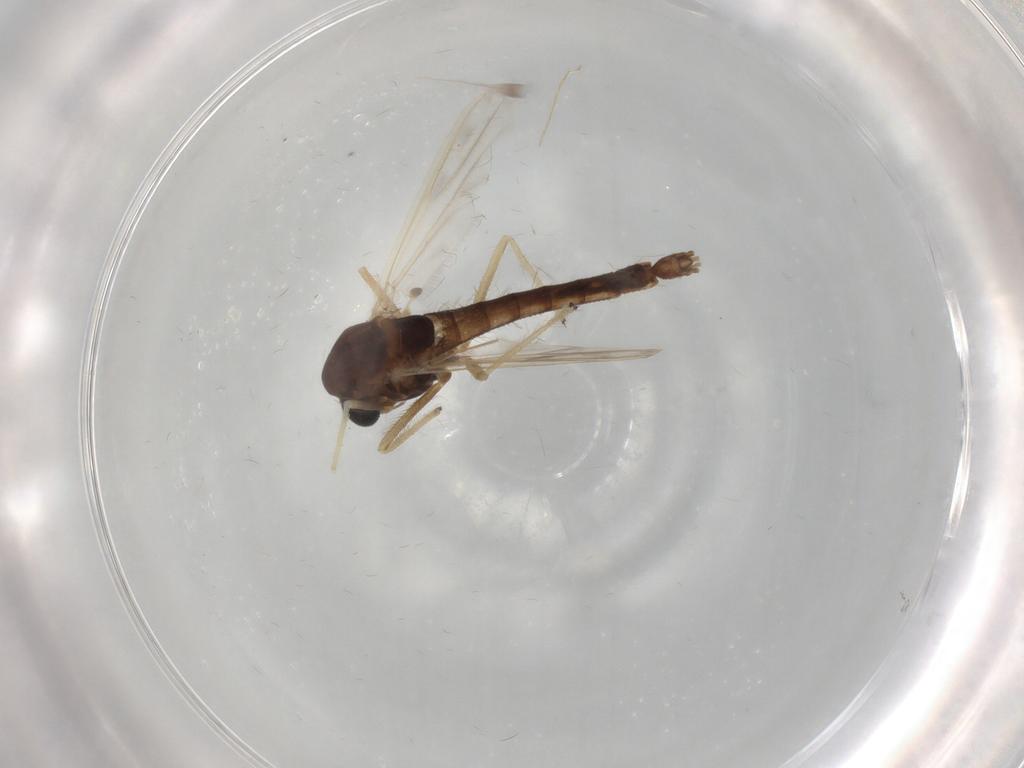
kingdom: Animalia
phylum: Arthropoda
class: Insecta
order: Diptera
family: Chironomidae
